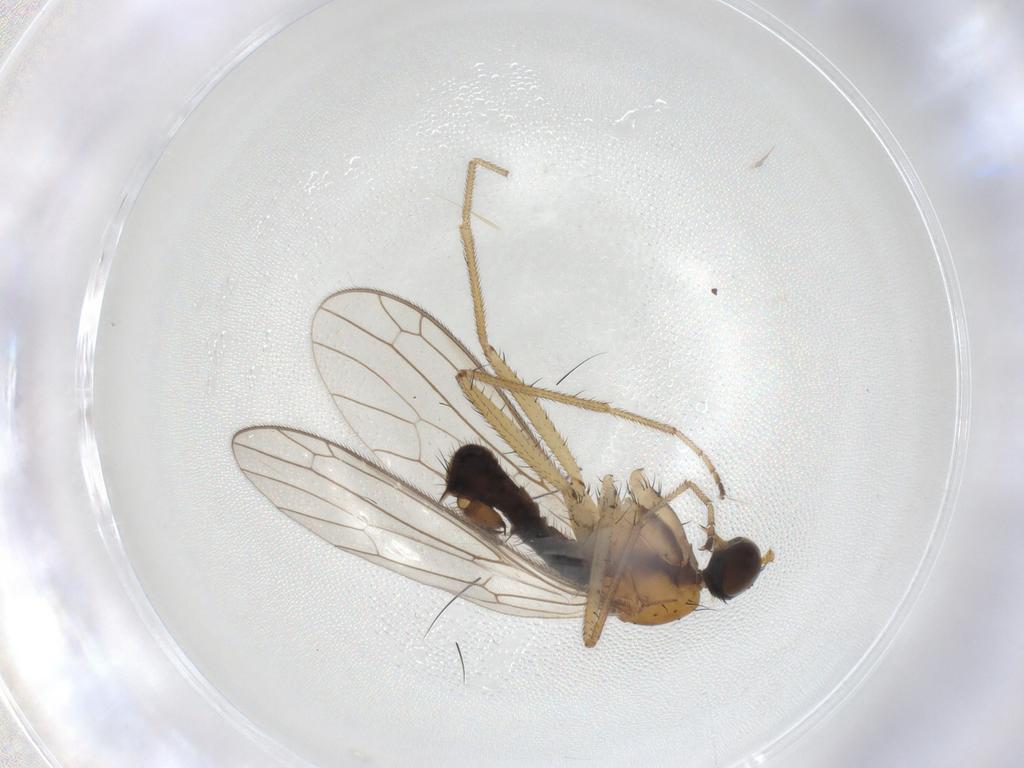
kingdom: Animalia
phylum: Arthropoda
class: Insecta
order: Diptera
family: Empididae
